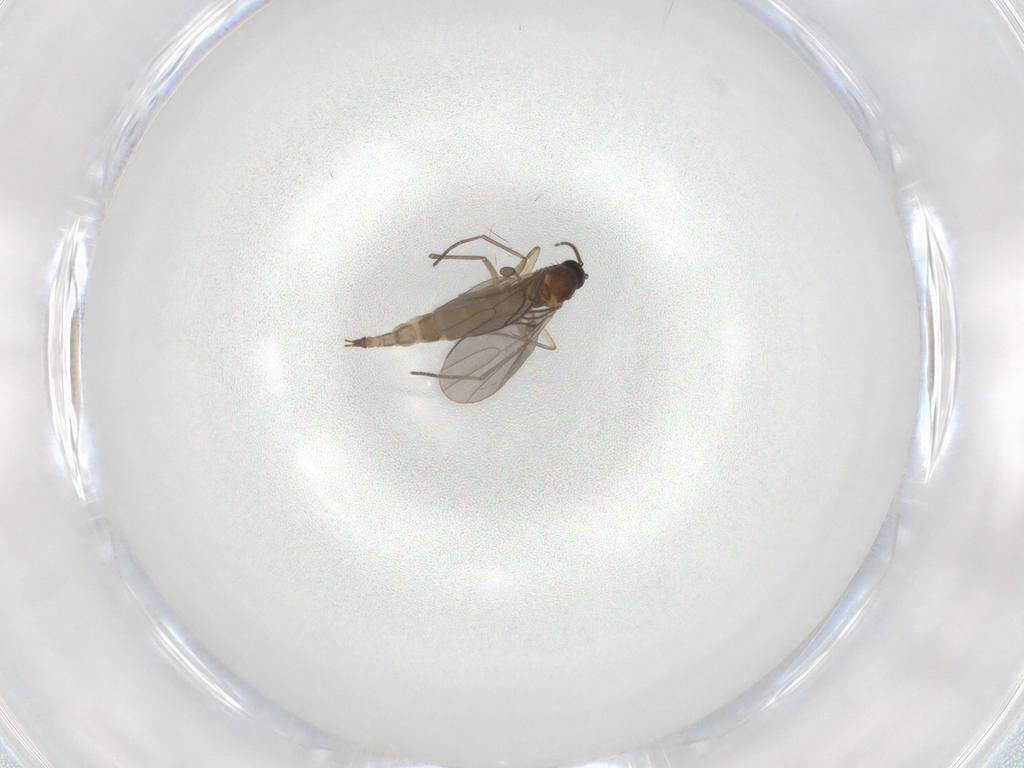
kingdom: Animalia
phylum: Arthropoda
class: Insecta
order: Diptera
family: Sciaridae
